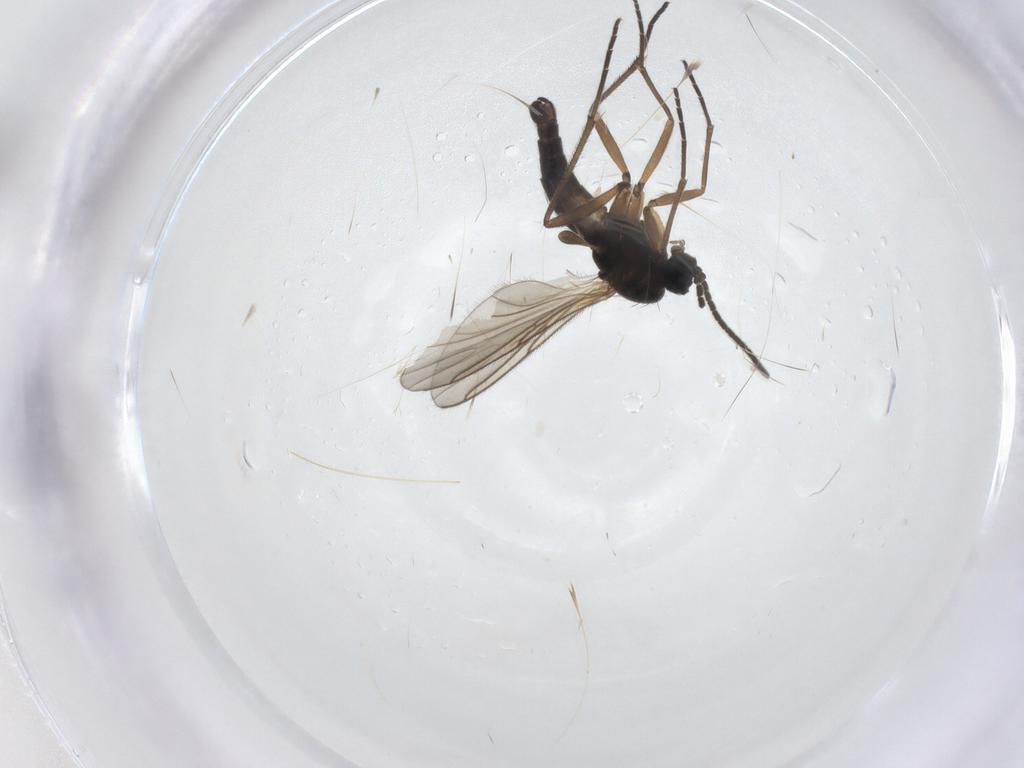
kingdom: Animalia
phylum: Arthropoda
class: Insecta
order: Diptera
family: Sciaridae
